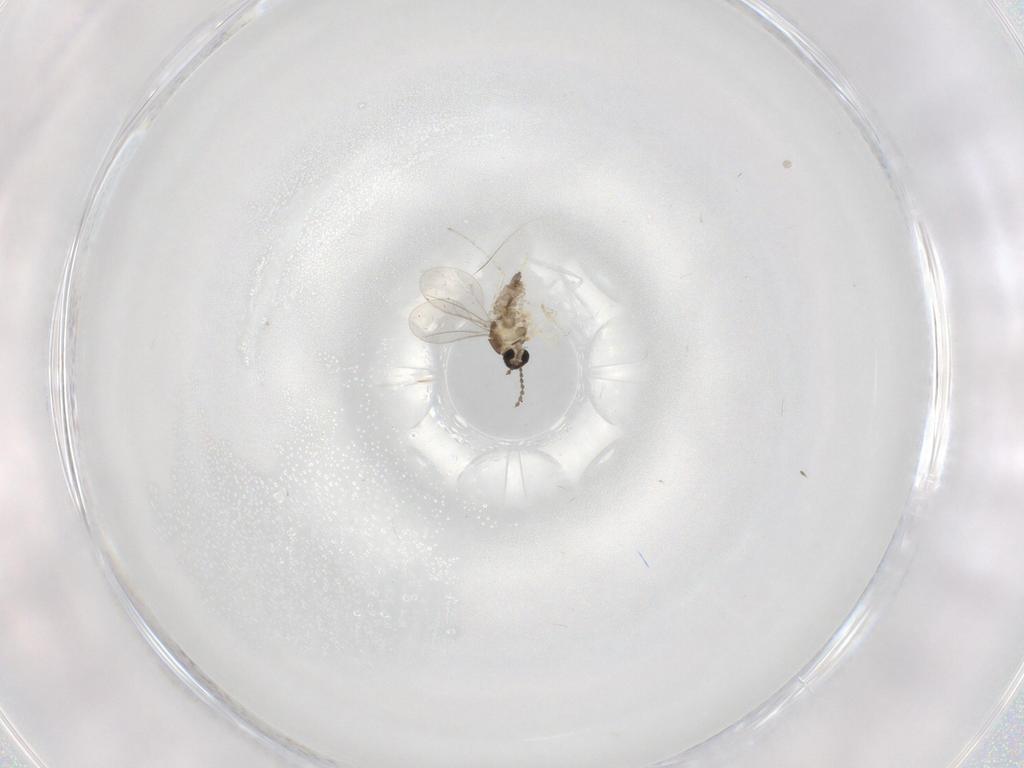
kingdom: Animalia
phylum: Arthropoda
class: Insecta
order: Diptera
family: Cecidomyiidae
